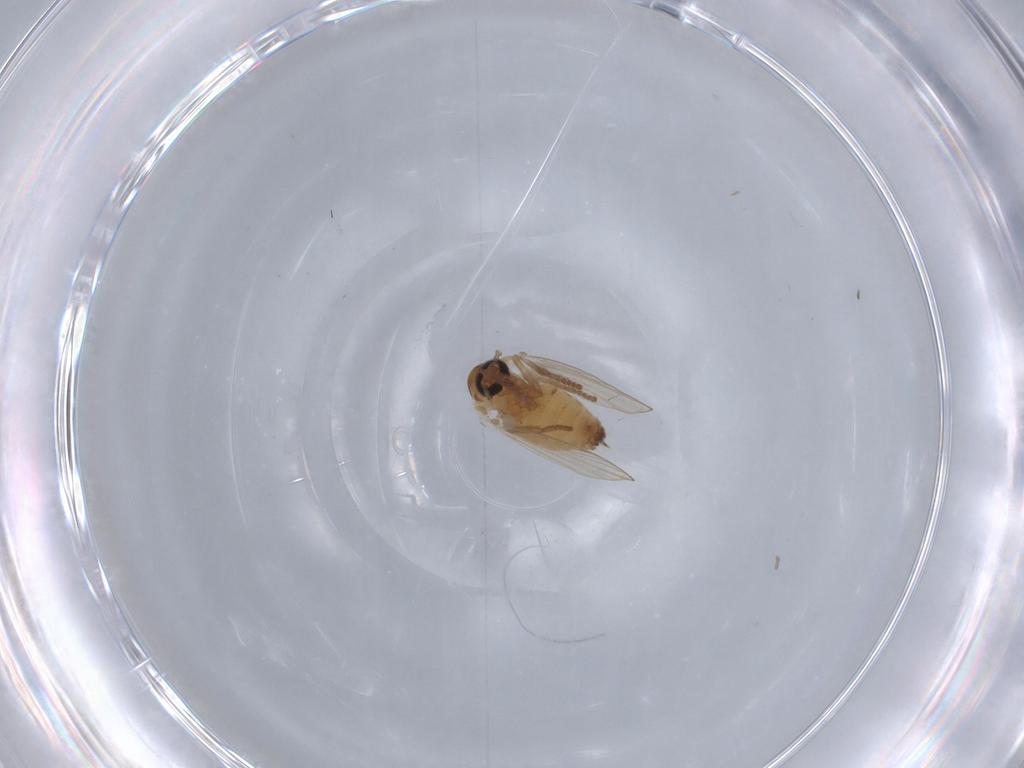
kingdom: Animalia
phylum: Arthropoda
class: Insecta
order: Diptera
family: Psychodidae
